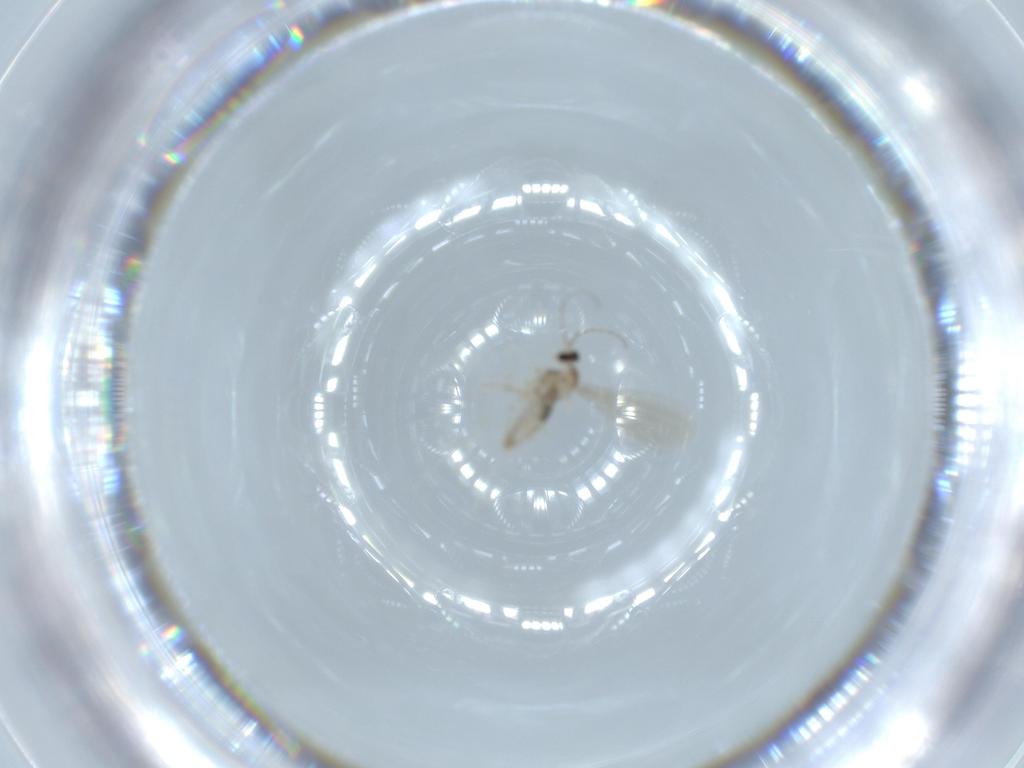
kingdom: Animalia
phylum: Arthropoda
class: Insecta
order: Diptera
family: Cecidomyiidae
